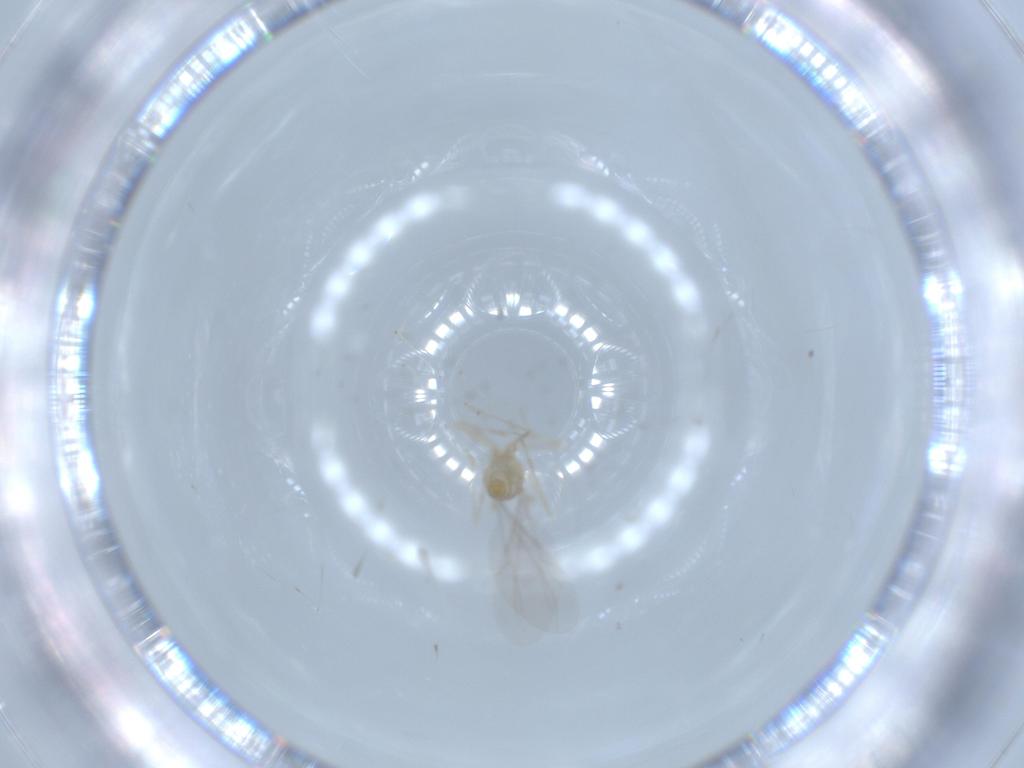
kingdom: Animalia
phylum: Arthropoda
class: Insecta
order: Diptera
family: Cecidomyiidae
